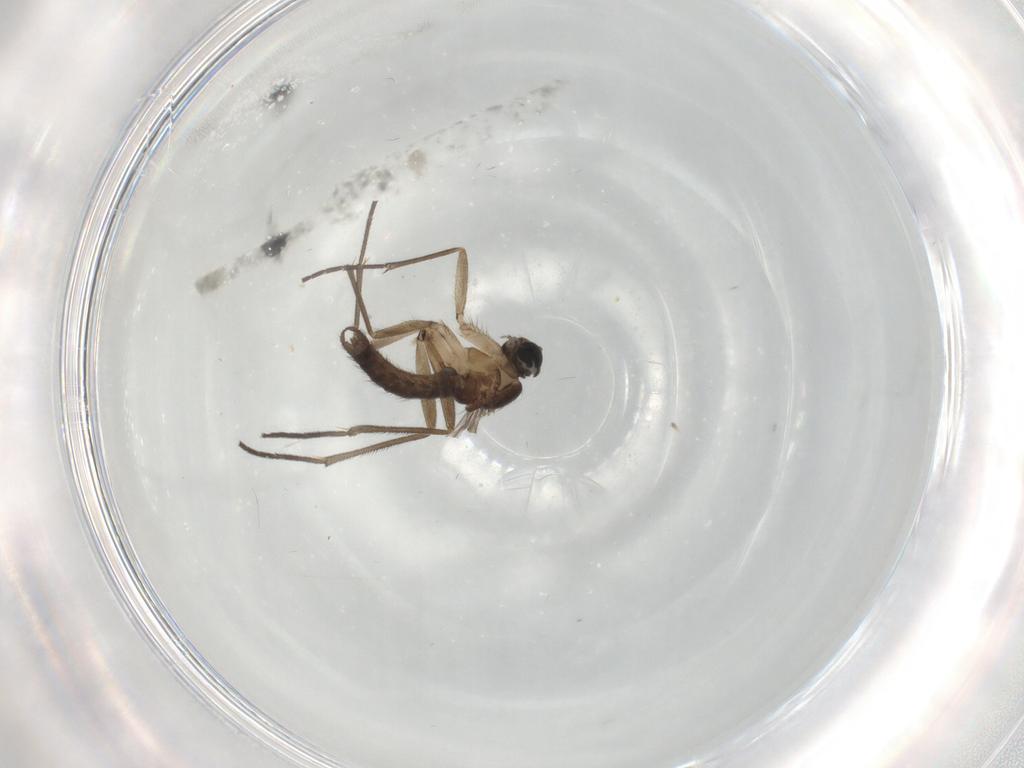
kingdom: Animalia
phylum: Arthropoda
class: Insecta
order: Diptera
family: Sciaridae
